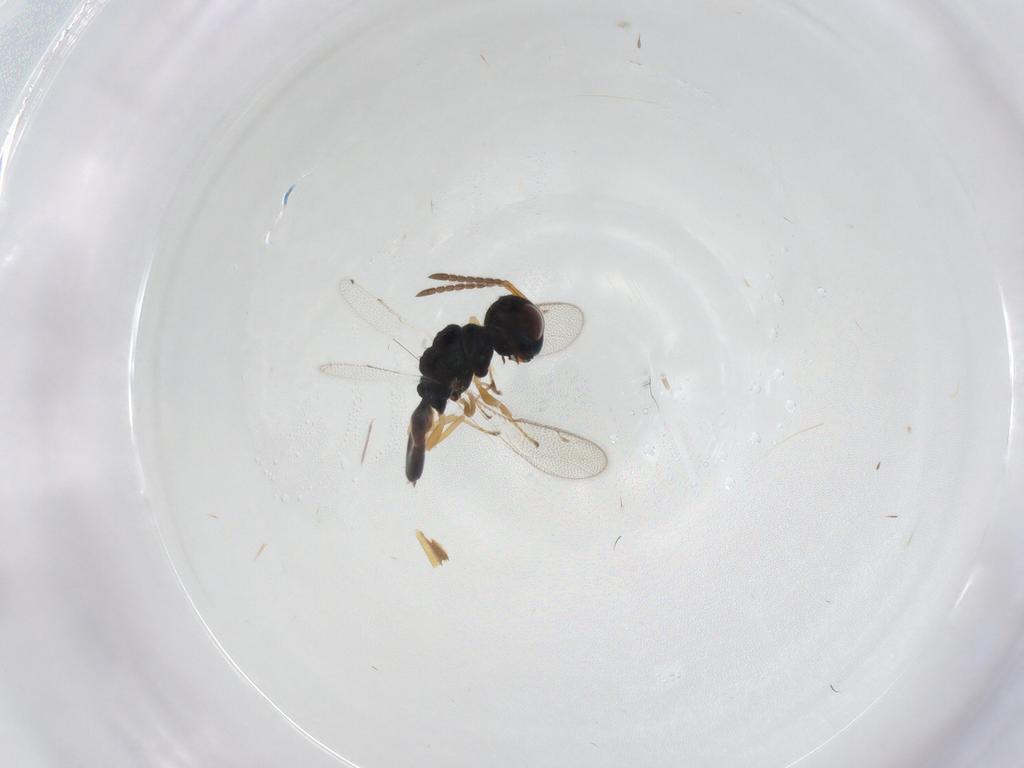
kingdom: Animalia
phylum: Arthropoda
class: Insecta
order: Hymenoptera
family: Pteromalidae
